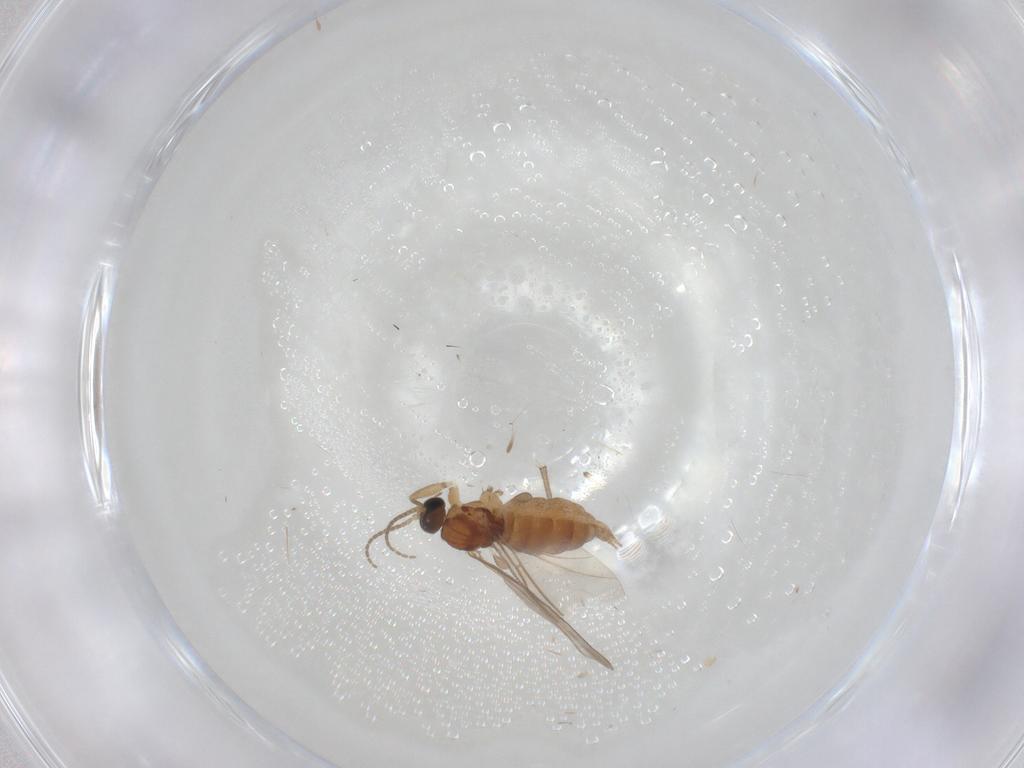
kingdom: Animalia
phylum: Arthropoda
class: Insecta
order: Diptera
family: Sciaridae
